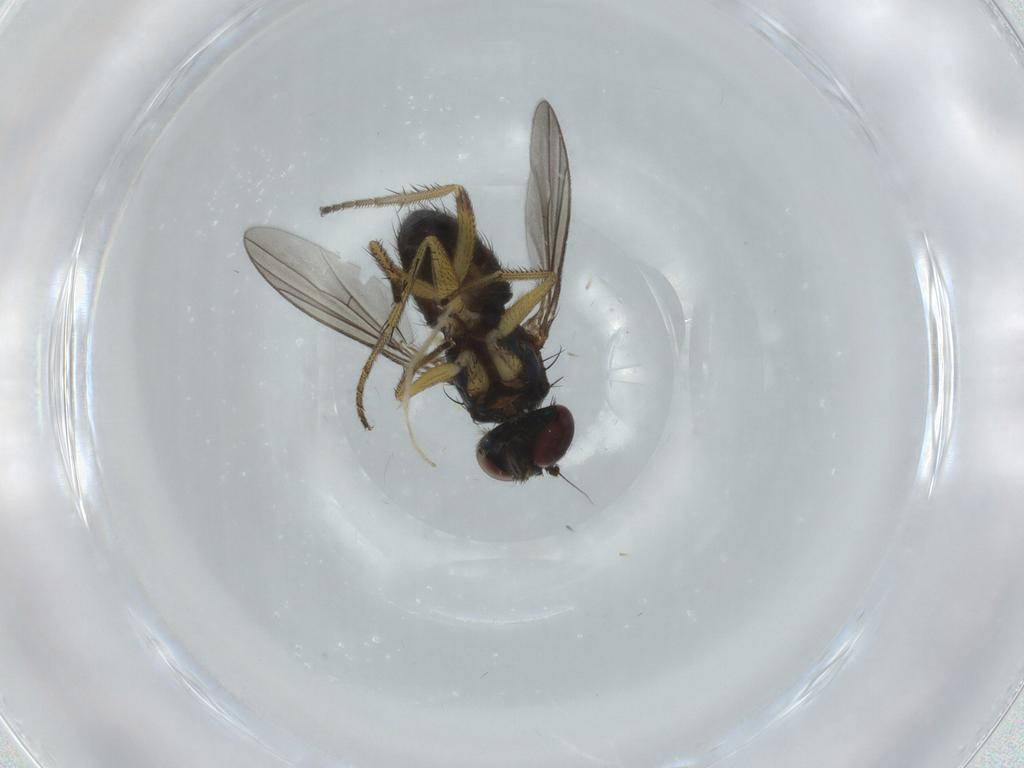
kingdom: Animalia
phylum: Arthropoda
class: Insecta
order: Diptera
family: Dolichopodidae
